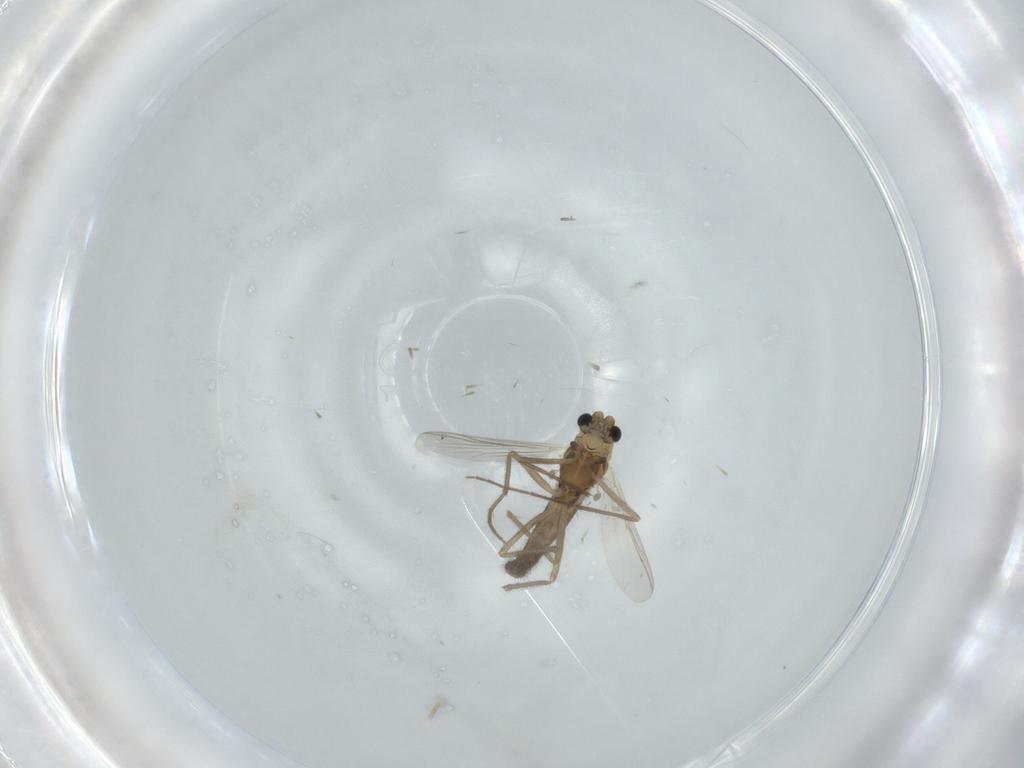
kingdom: Animalia
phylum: Arthropoda
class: Insecta
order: Diptera
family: Chironomidae
